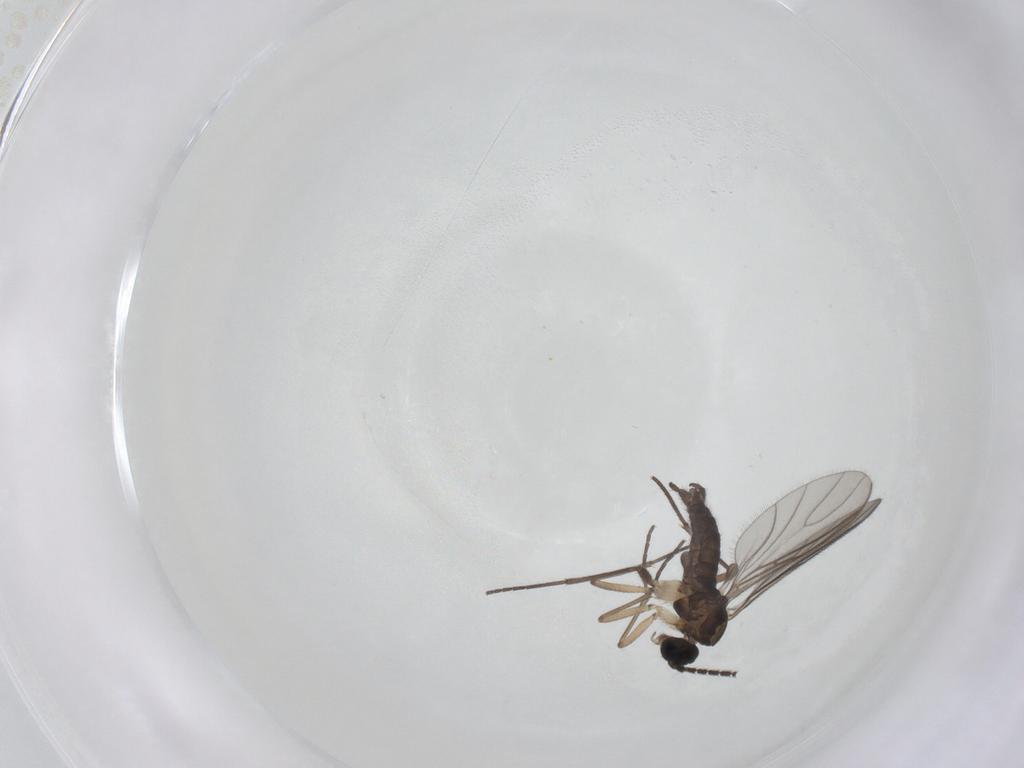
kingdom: Animalia
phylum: Arthropoda
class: Insecta
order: Diptera
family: Sciaridae
